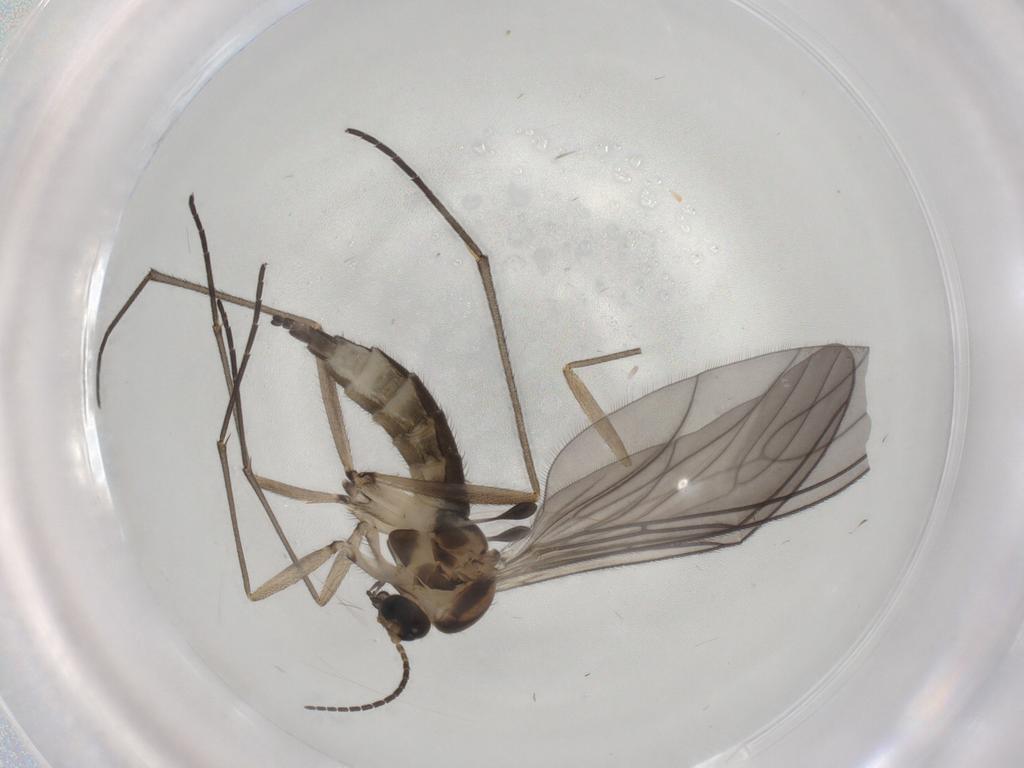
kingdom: Animalia
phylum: Arthropoda
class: Insecta
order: Diptera
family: Sciaridae
